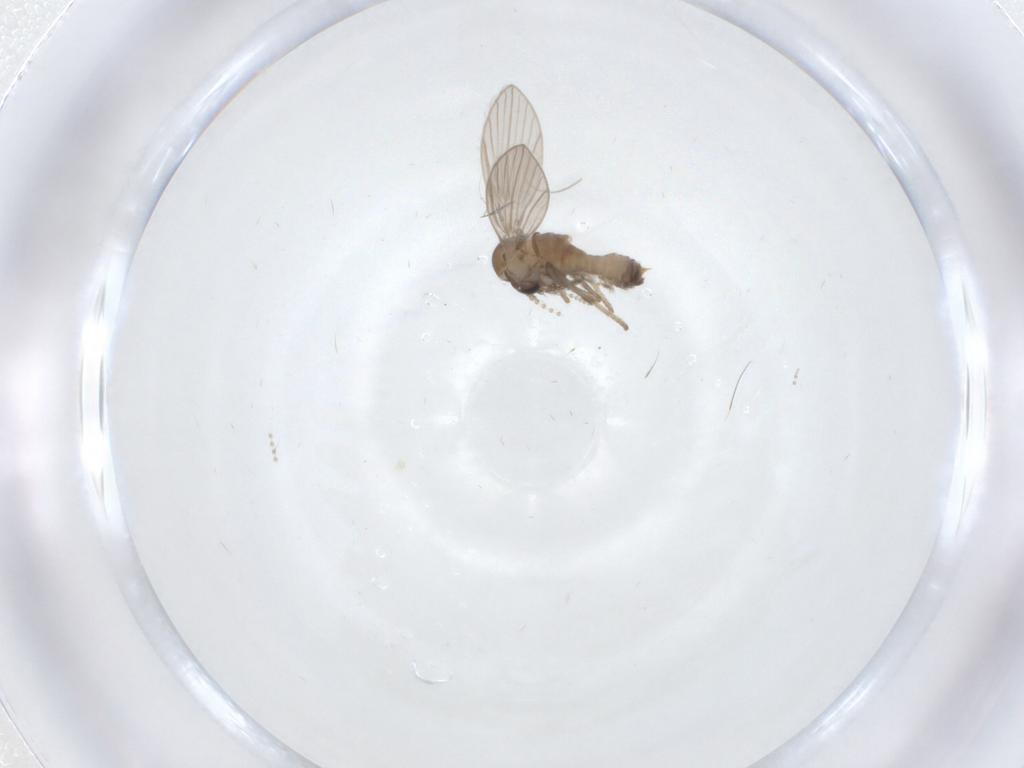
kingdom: Animalia
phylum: Arthropoda
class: Insecta
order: Diptera
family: Psychodidae
